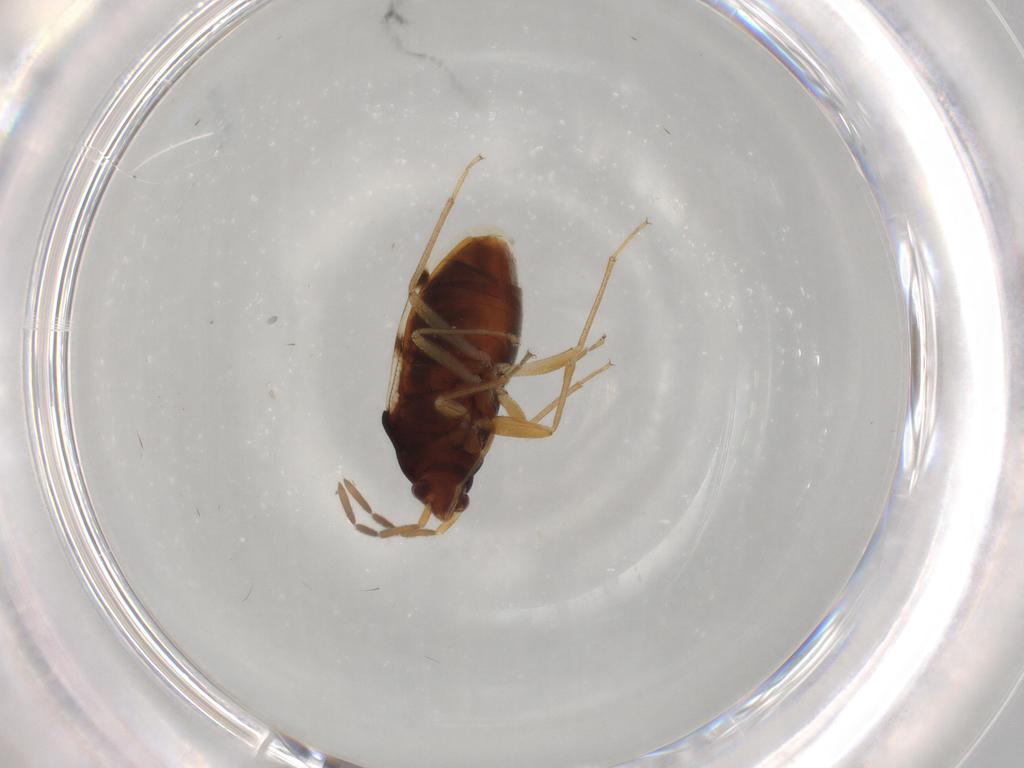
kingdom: Animalia
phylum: Arthropoda
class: Insecta
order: Hemiptera
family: Rhyparochromidae
